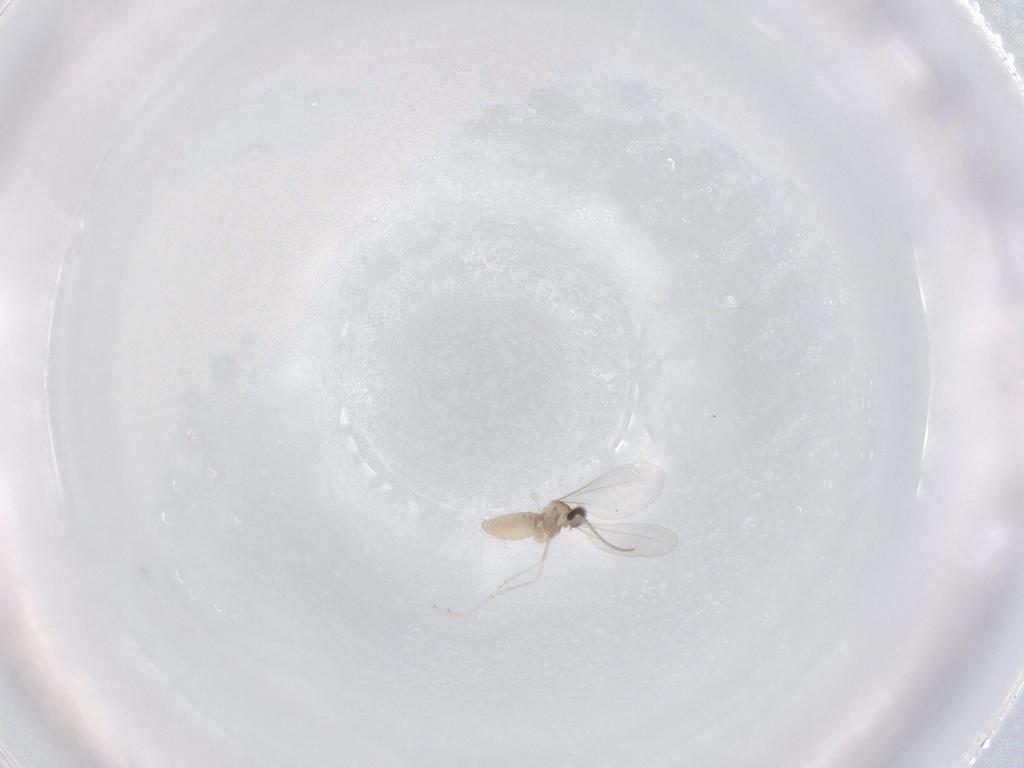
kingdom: Animalia
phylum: Arthropoda
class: Insecta
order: Diptera
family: Cecidomyiidae
